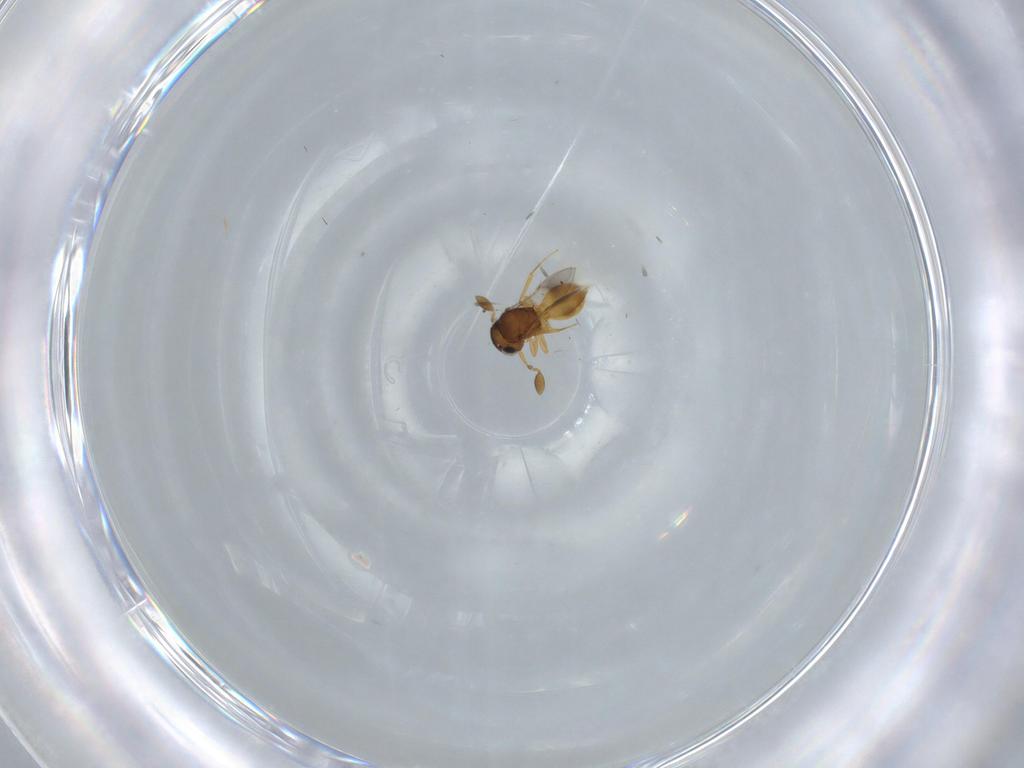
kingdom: Animalia
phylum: Arthropoda
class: Insecta
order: Hymenoptera
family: Scelionidae
